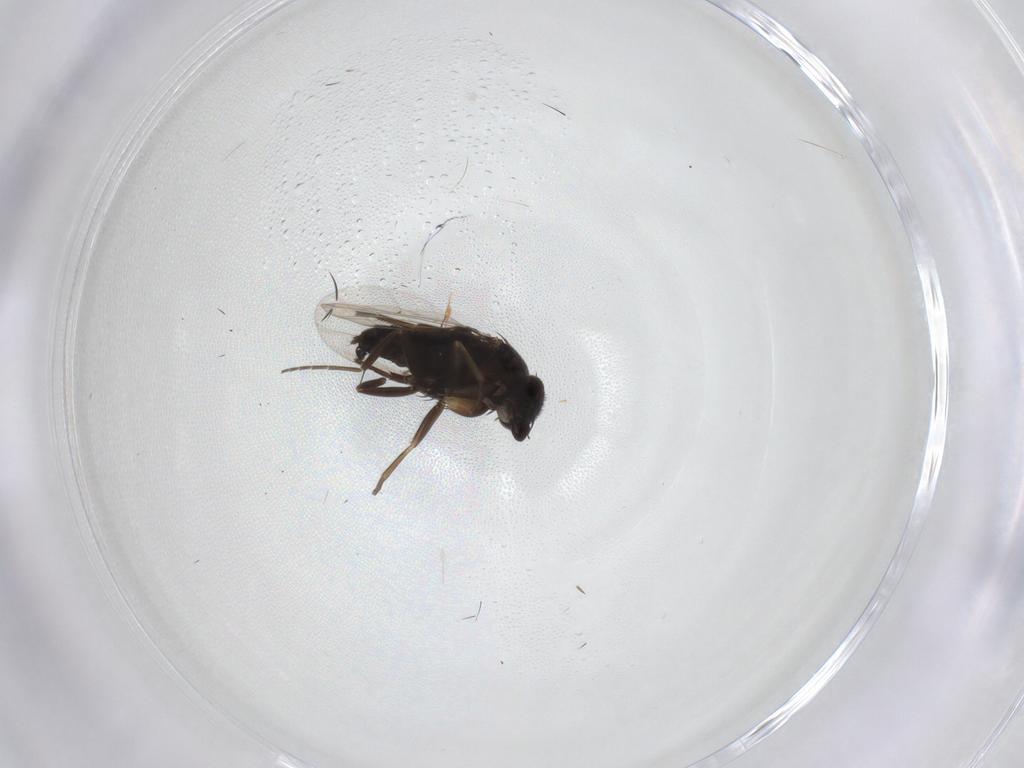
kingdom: Animalia
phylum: Arthropoda
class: Insecta
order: Diptera
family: Phoridae
